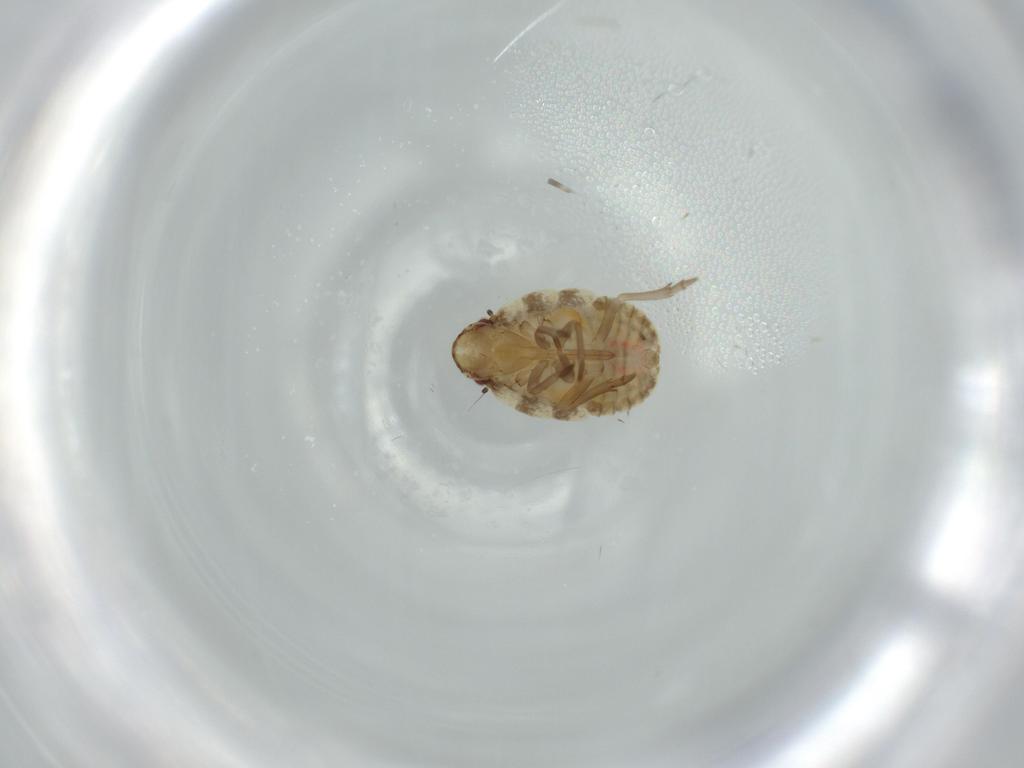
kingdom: Animalia
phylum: Arthropoda
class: Insecta
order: Hemiptera
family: Flatidae
